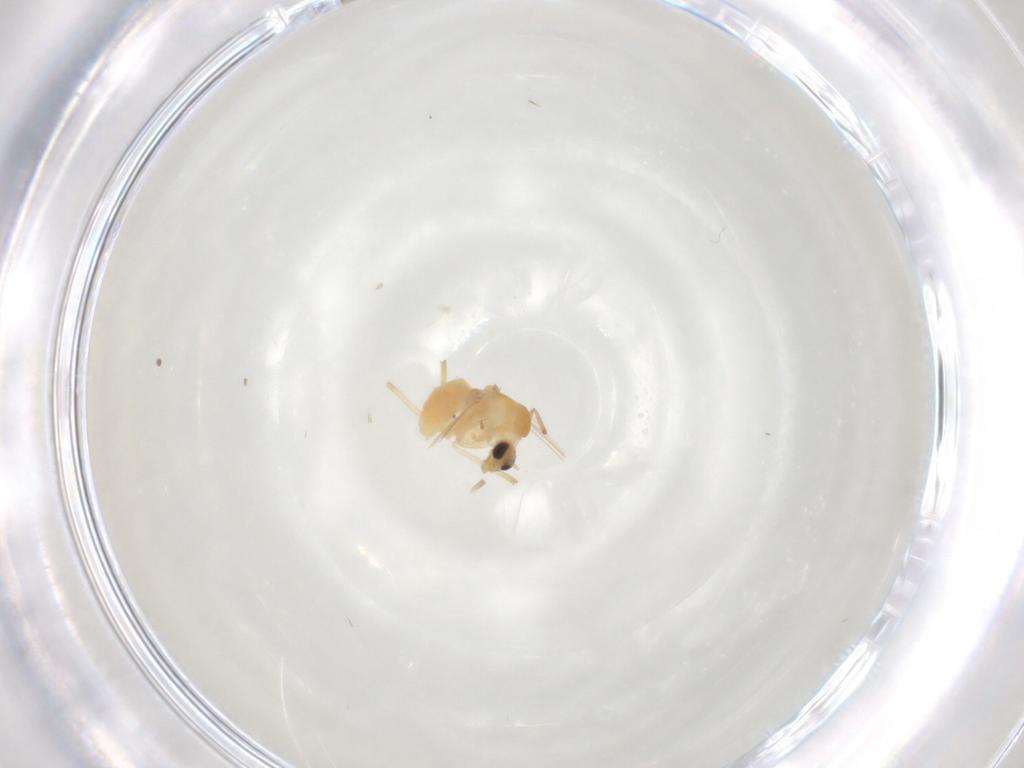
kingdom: Animalia
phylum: Arthropoda
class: Insecta
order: Diptera
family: Chironomidae
